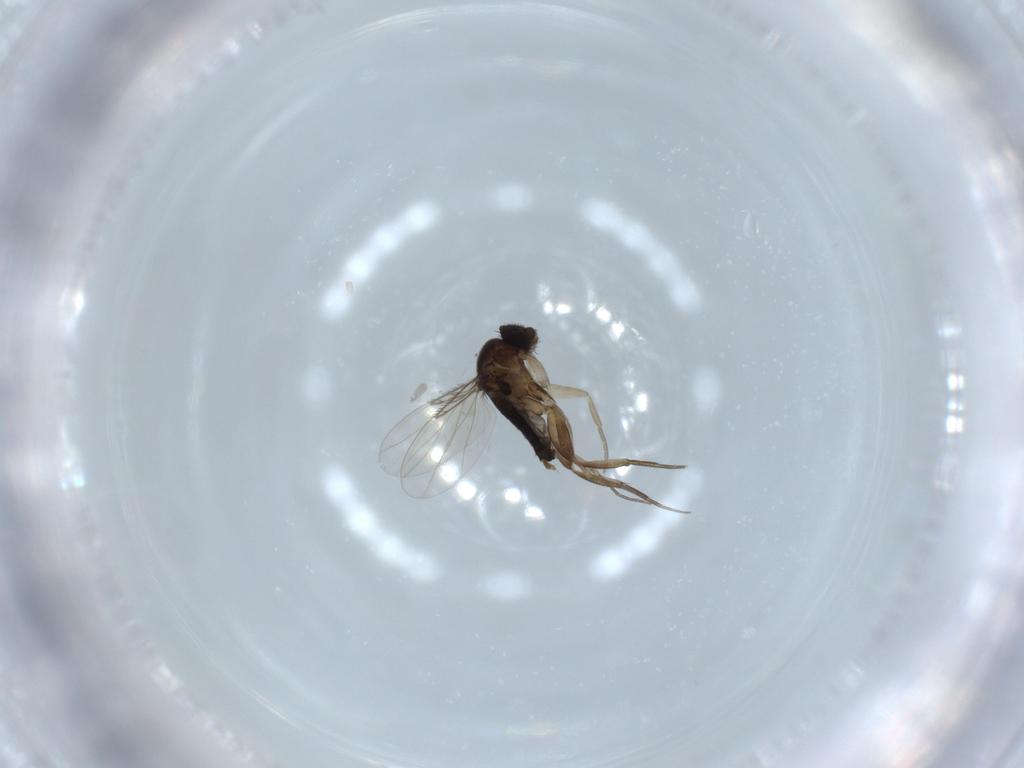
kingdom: Animalia
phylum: Arthropoda
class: Insecta
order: Diptera
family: Phoridae
